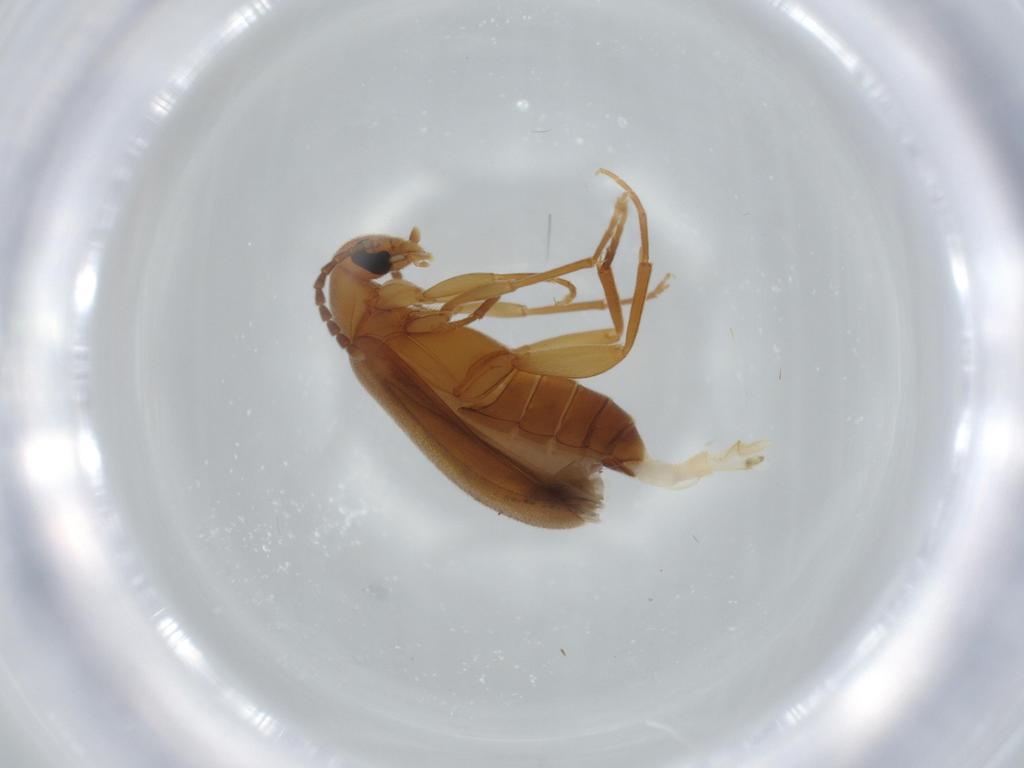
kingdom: Animalia
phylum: Arthropoda
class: Insecta
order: Coleoptera
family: Scraptiidae
